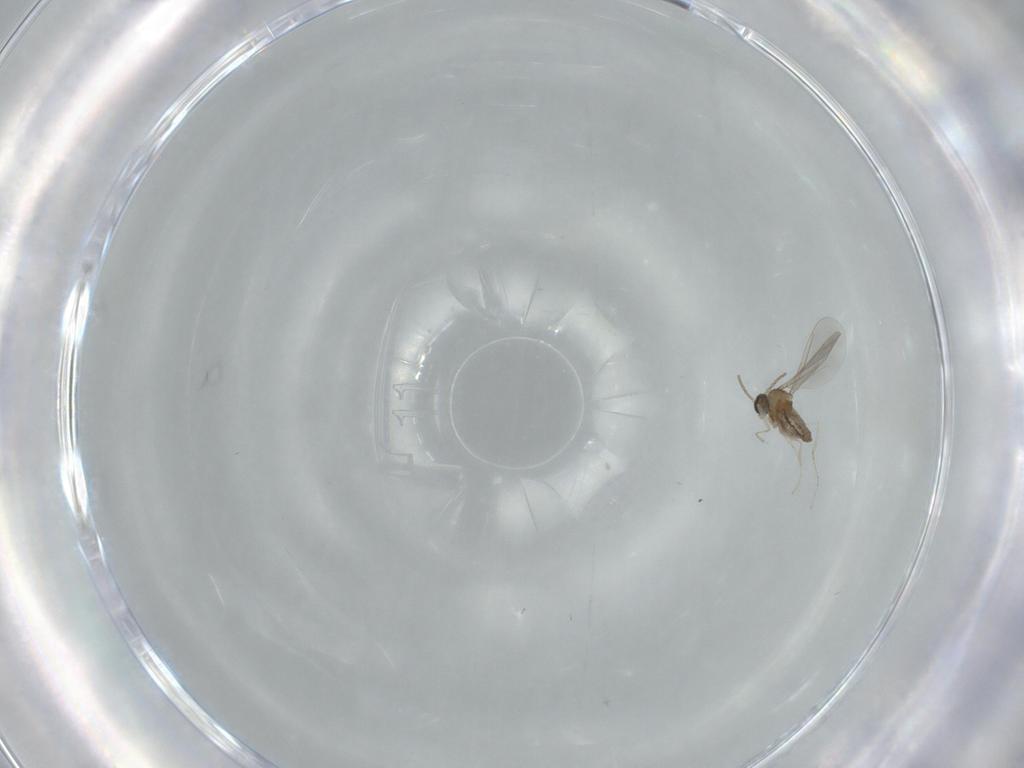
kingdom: Animalia
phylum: Arthropoda
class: Insecta
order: Diptera
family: Cecidomyiidae
